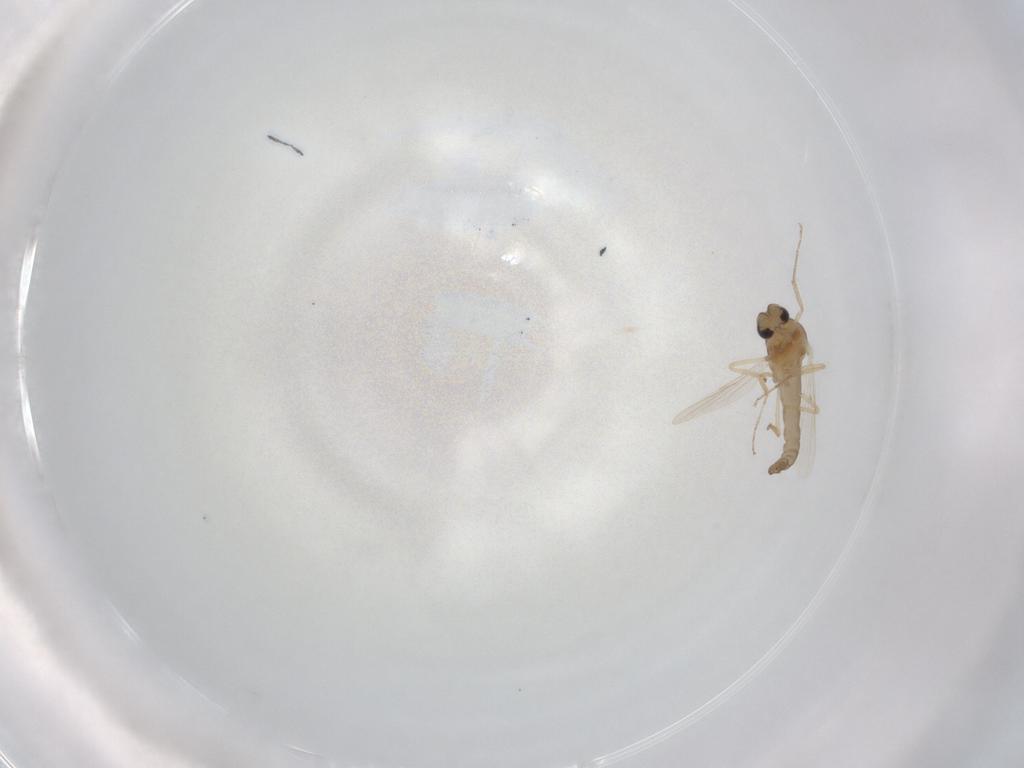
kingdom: Animalia
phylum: Arthropoda
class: Insecta
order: Diptera
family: Ceratopogonidae
